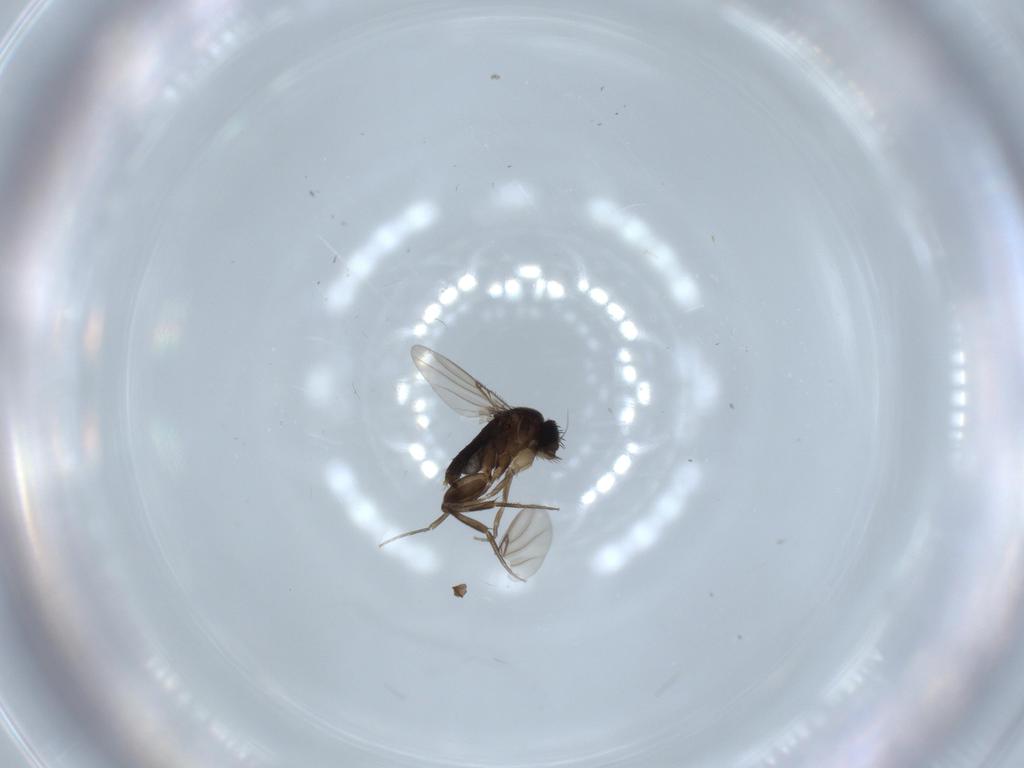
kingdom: Animalia
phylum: Arthropoda
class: Insecta
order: Diptera
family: Phoridae
